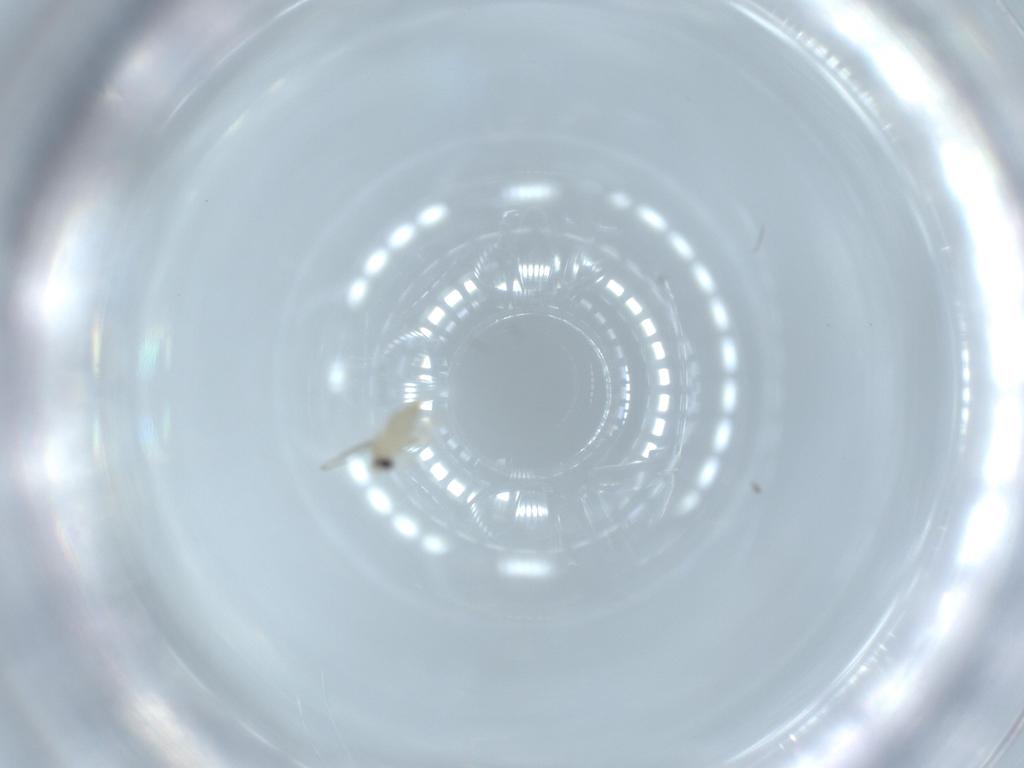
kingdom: Animalia
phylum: Arthropoda
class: Insecta
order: Diptera
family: Cecidomyiidae
